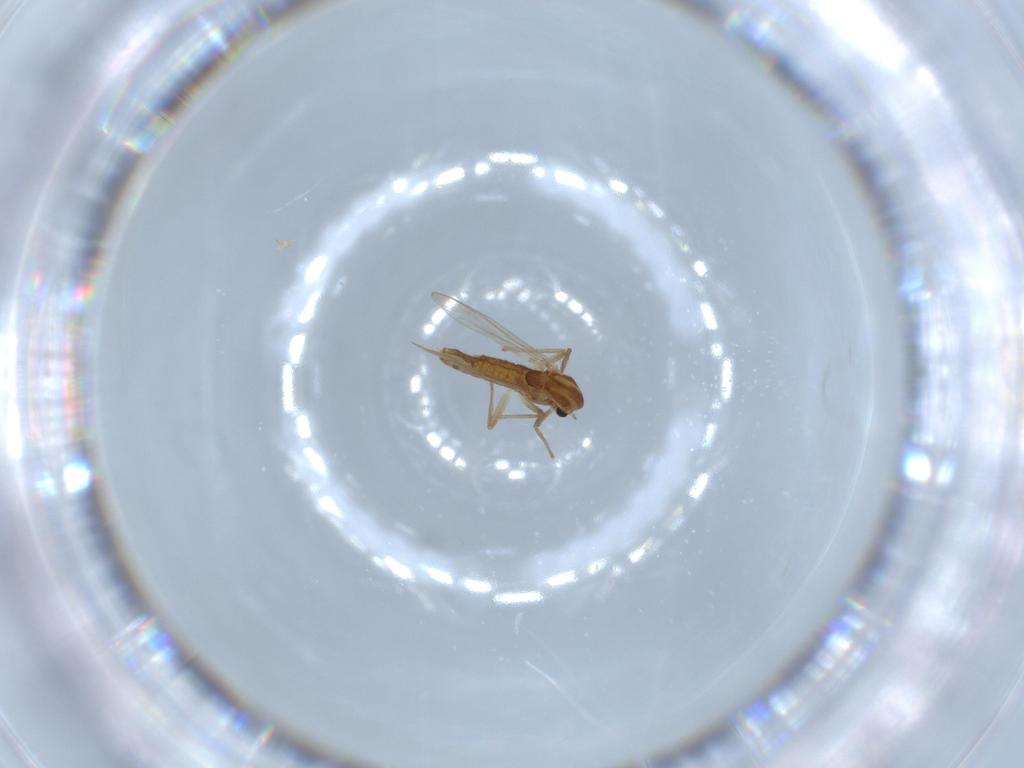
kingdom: Animalia
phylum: Arthropoda
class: Insecta
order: Diptera
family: Chironomidae
